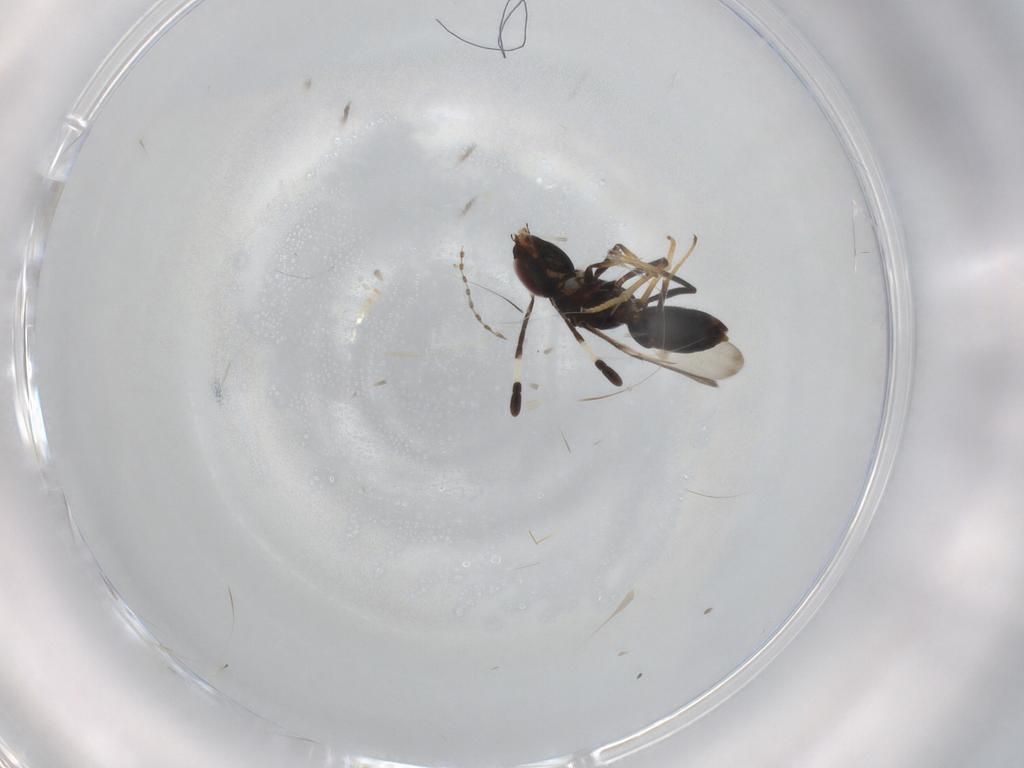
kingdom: Animalia
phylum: Arthropoda
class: Insecta
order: Hymenoptera
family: Encyrtidae
